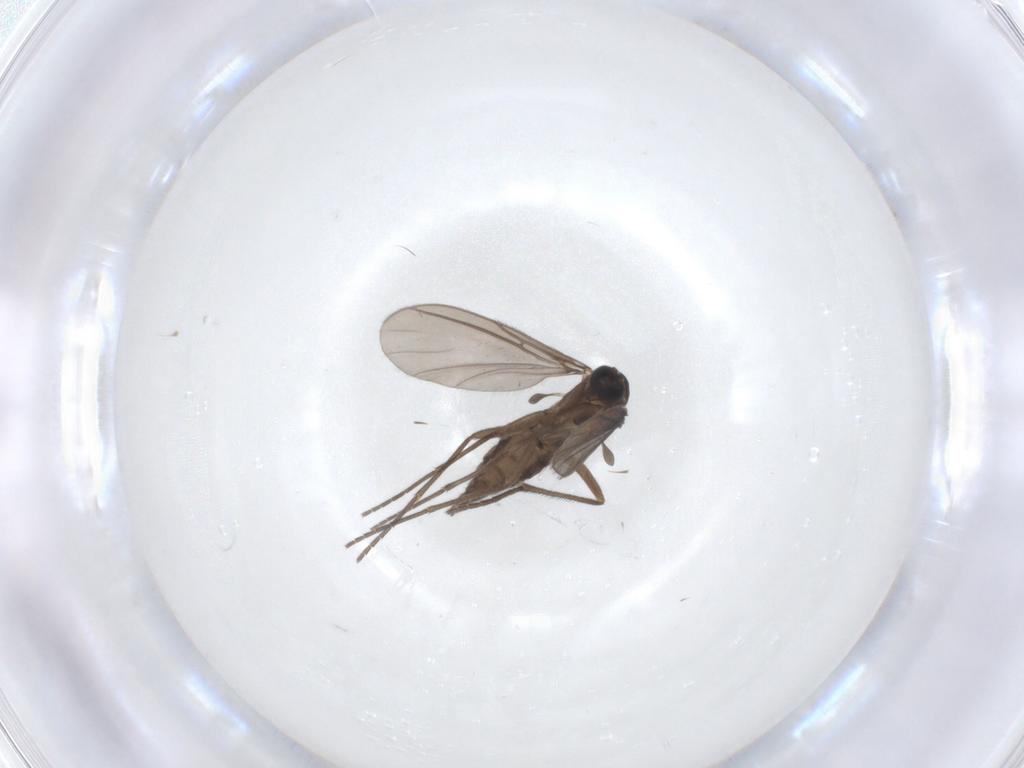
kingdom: Animalia
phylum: Arthropoda
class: Insecta
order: Diptera
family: Sciaridae
